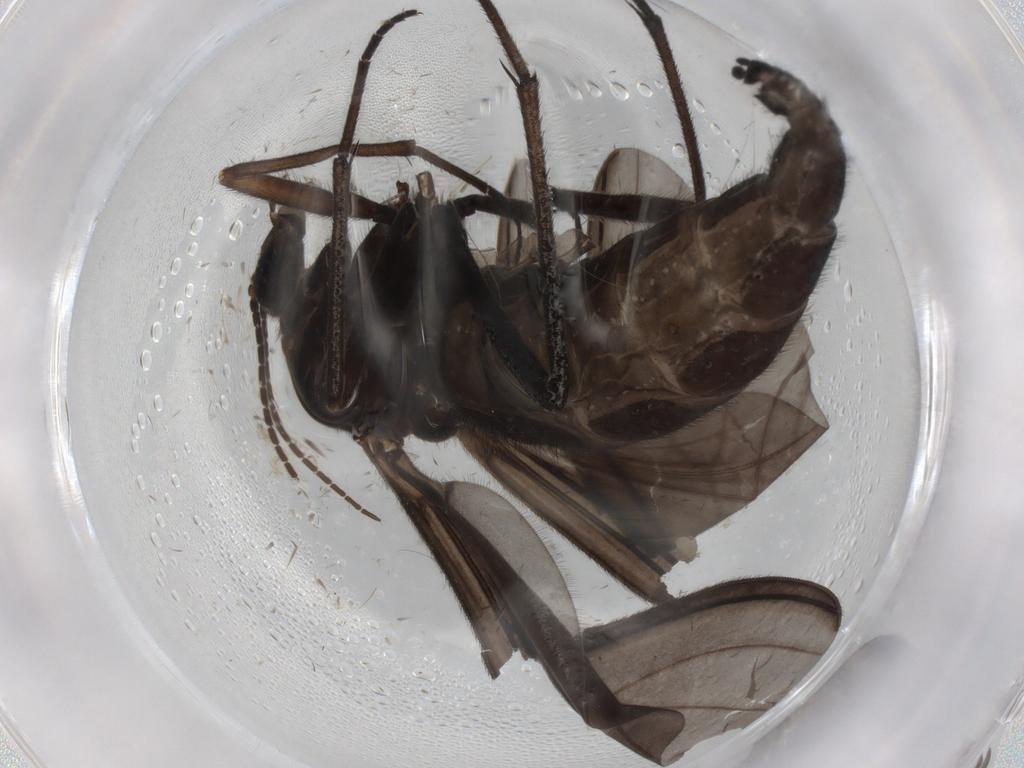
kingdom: Animalia
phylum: Arthropoda
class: Insecta
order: Diptera
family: Sciaridae
